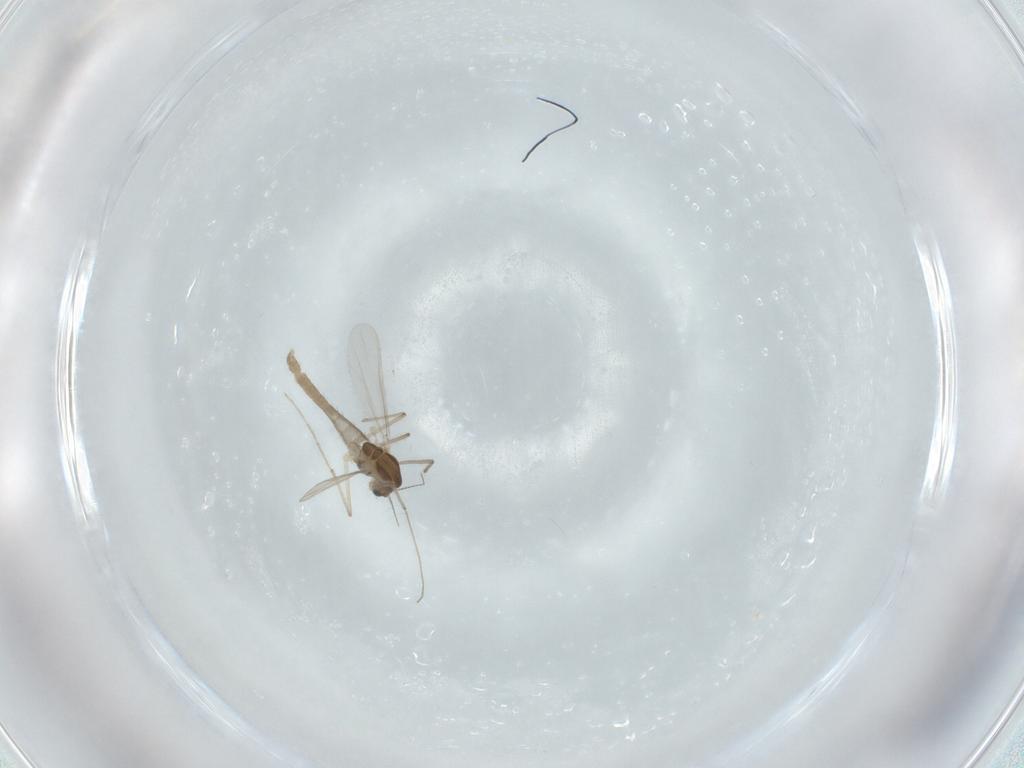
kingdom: Animalia
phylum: Arthropoda
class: Insecta
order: Diptera
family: Chironomidae
